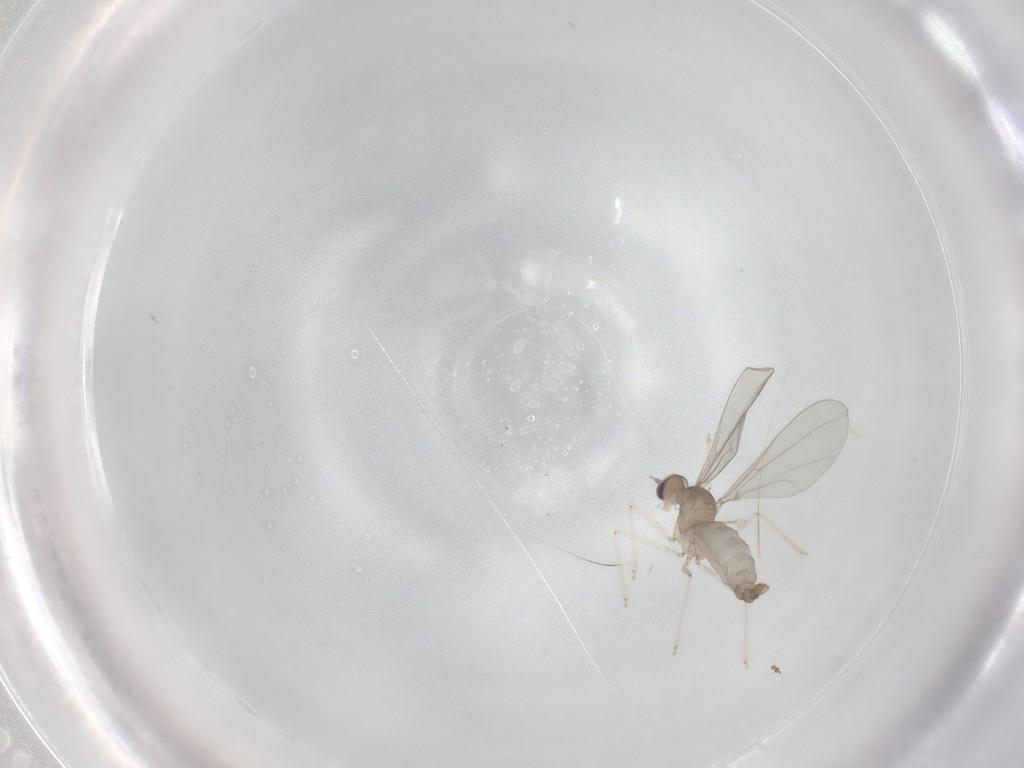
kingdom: Animalia
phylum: Arthropoda
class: Insecta
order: Diptera
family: Cecidomyiidae
